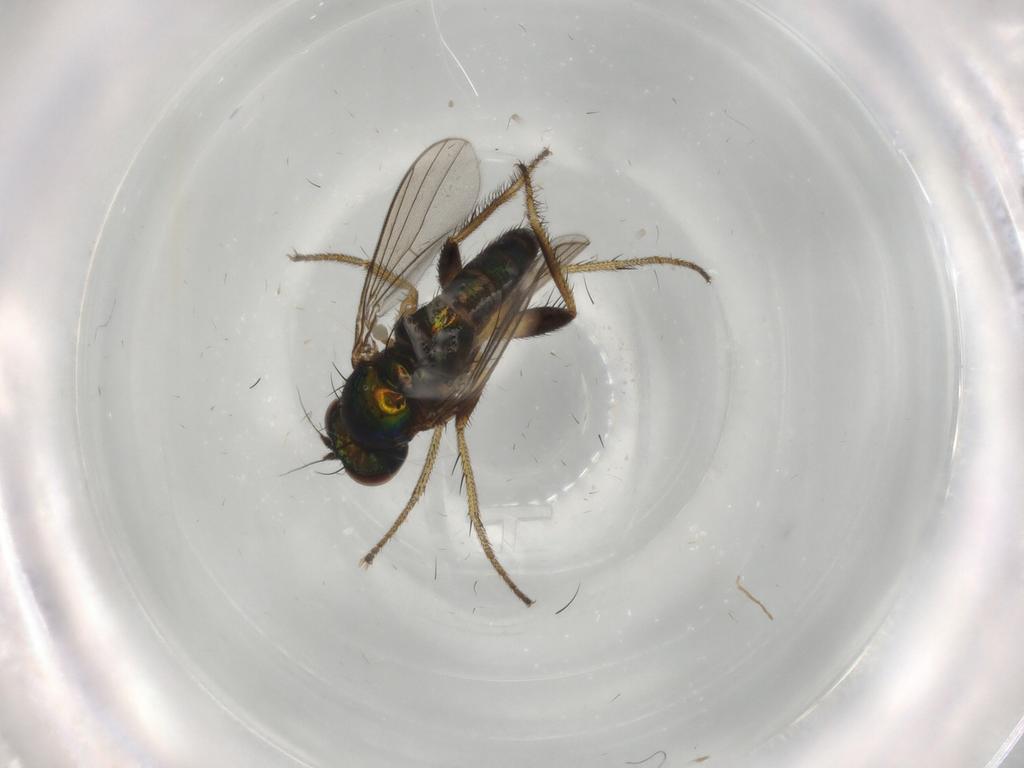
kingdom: Animalia
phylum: Arthropoda
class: Insecta
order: Diptera
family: Dolichopodidae
